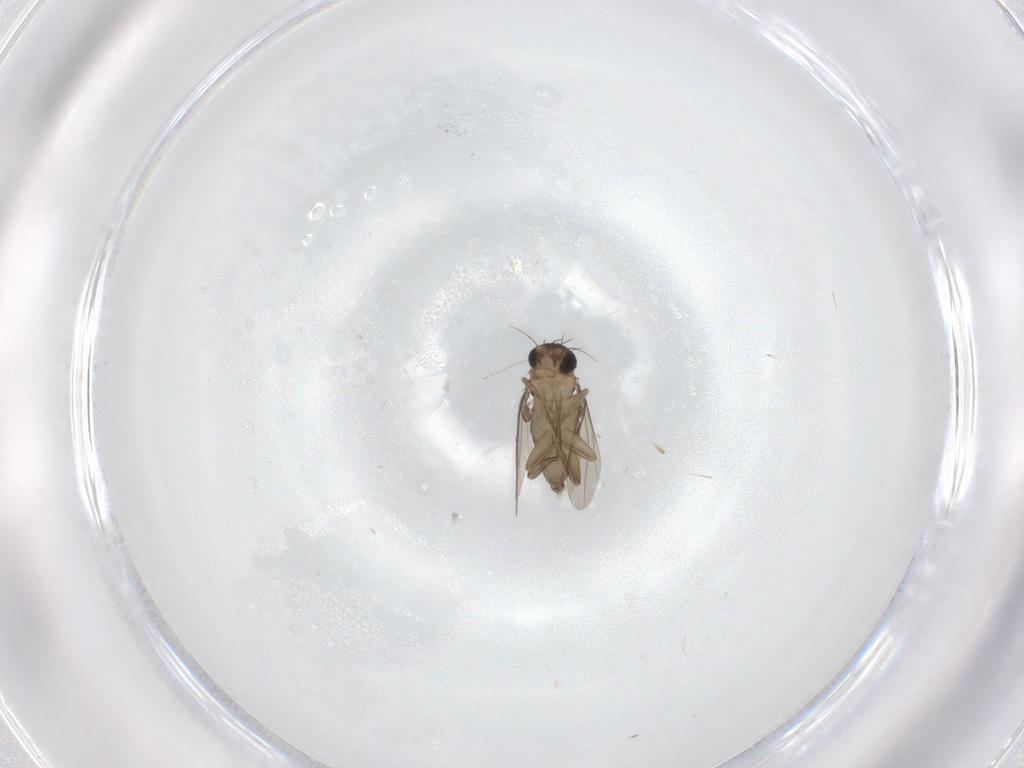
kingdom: Animalia
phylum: Arthropoda
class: Insecta
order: Diptera
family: Phoridae
